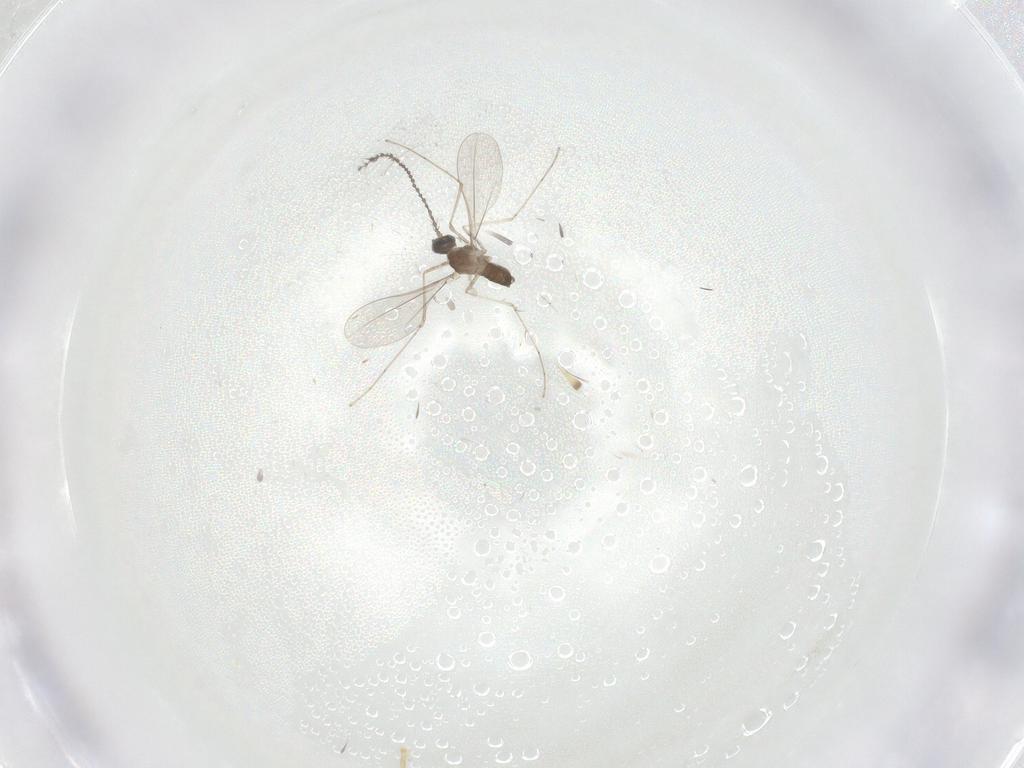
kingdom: Animalia
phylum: Arthropoda
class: Insecta
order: Diptera
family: Cecidomyiidae
